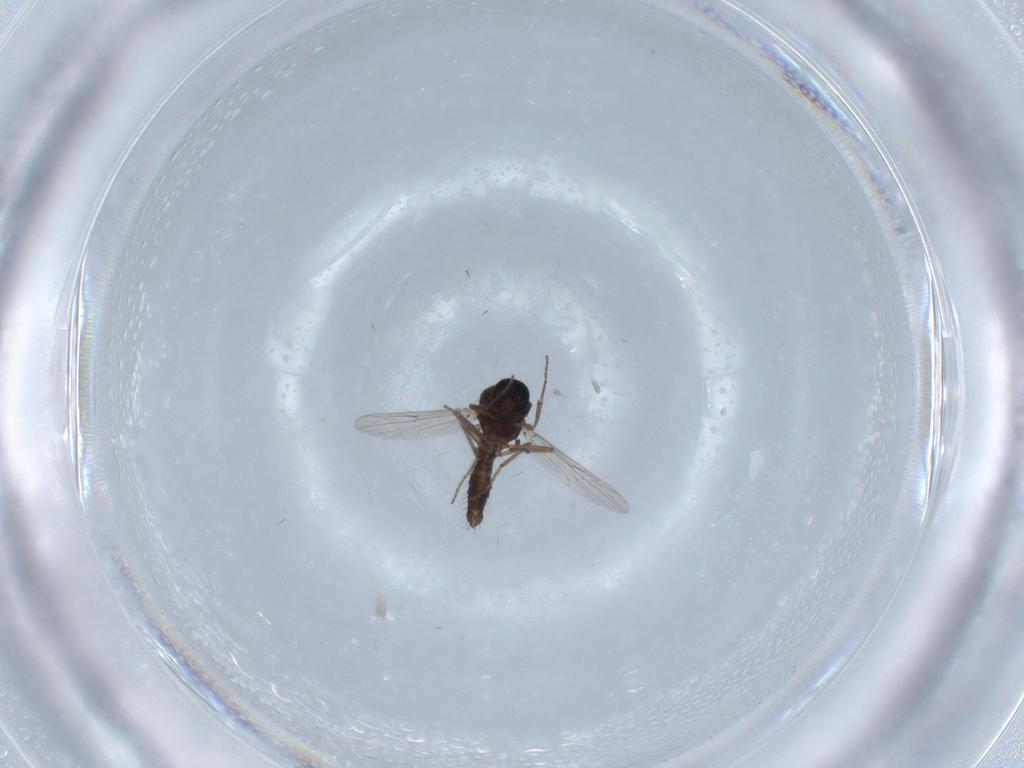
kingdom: Animalia
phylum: Arthropoda
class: Insecta
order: Diptera
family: Ceratopogonidae
